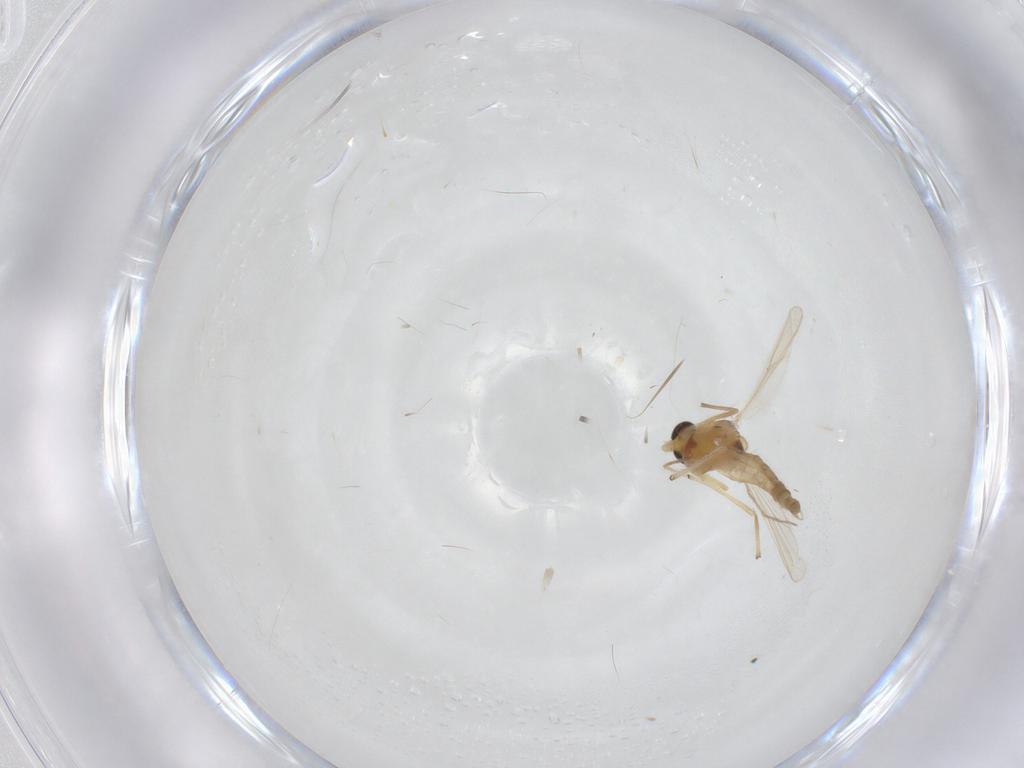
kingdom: Animalia
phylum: Arthropoda
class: Insecta
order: Diptera
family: Chironomidae
